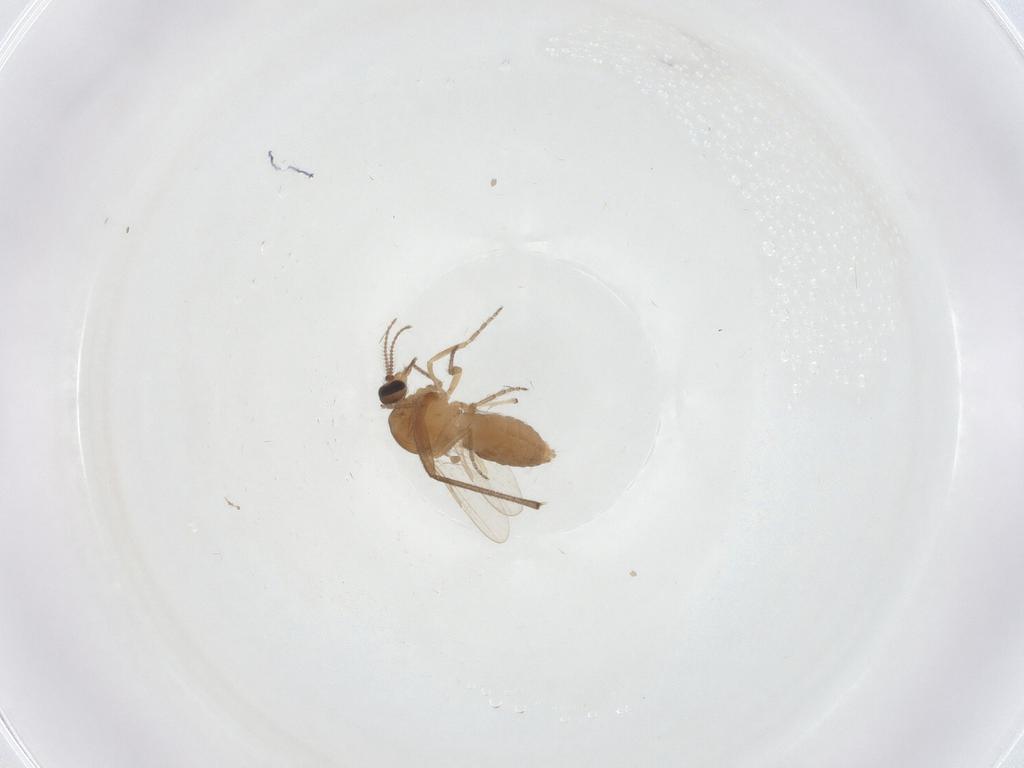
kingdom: Animalia
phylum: Arthropoda
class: Insecta
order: Diptera
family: Ceratopogonidae
